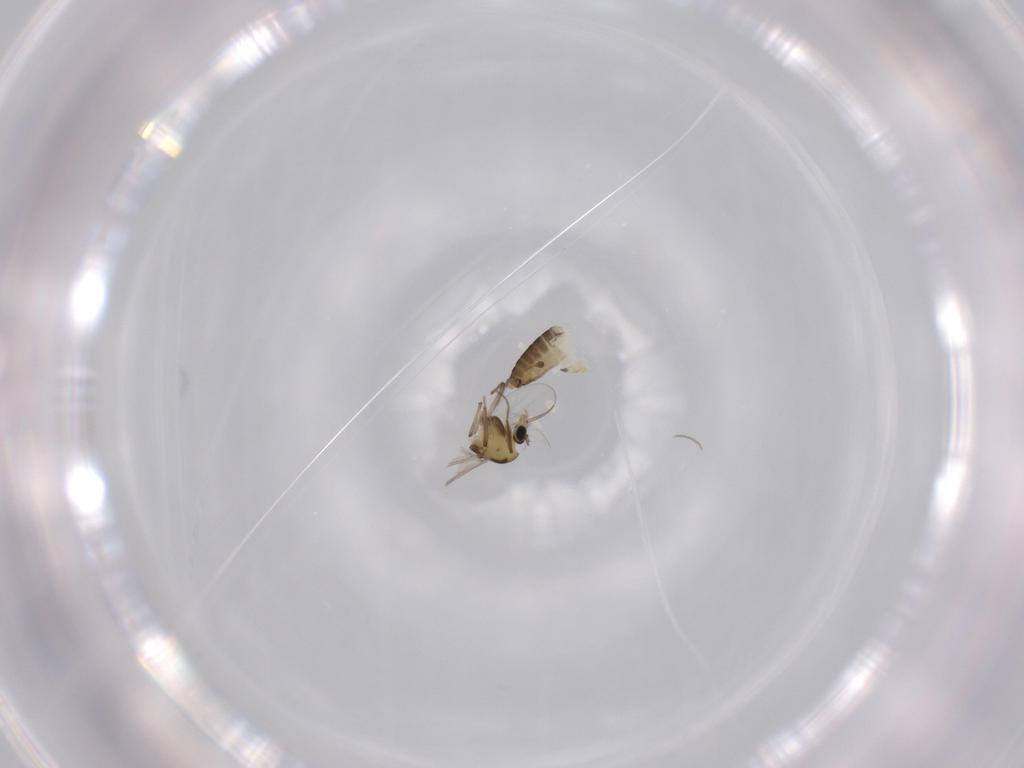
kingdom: Animalia
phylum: Arthropoda
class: Insecta
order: Diptera
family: Chironomidae
